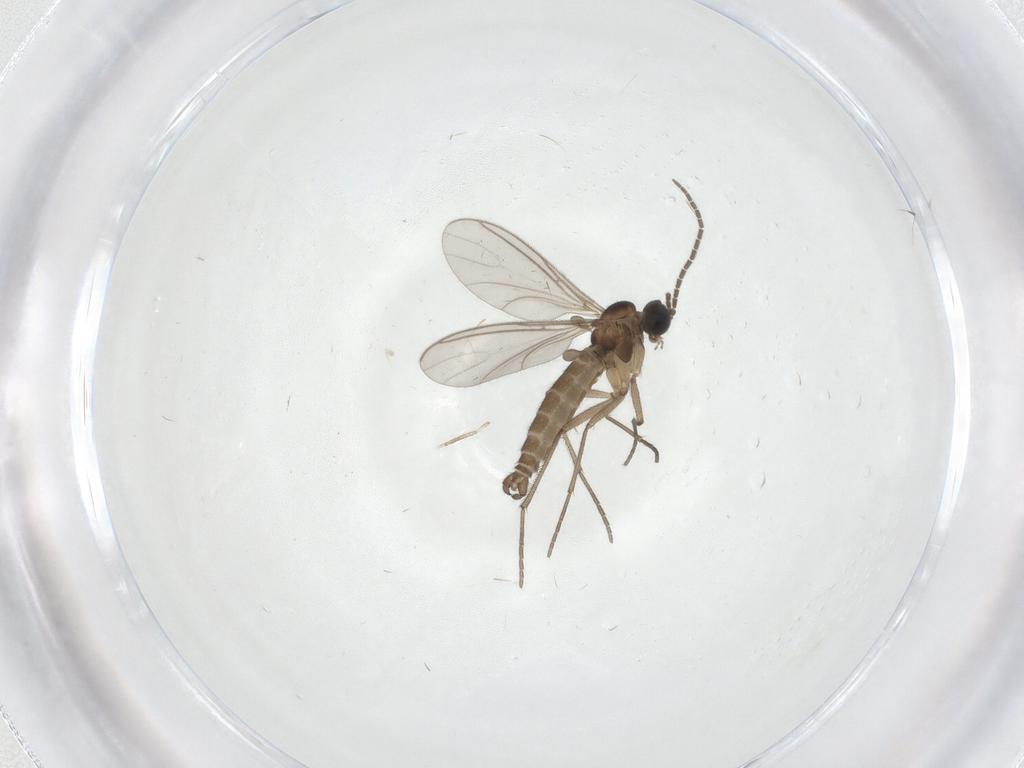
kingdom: Animalia
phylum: Arthropoda
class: Insecta
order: Diptera
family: Sciaridae
